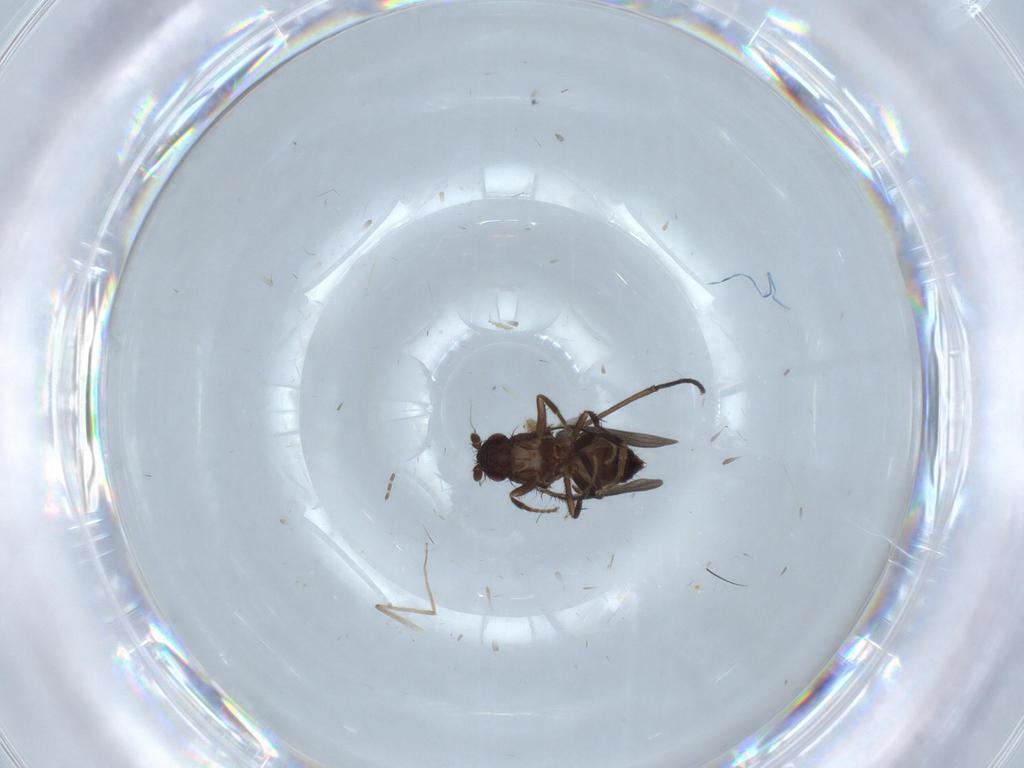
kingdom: Animalia
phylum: Arthropoda
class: Insecta
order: Diptera
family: Sphaeroceridae
